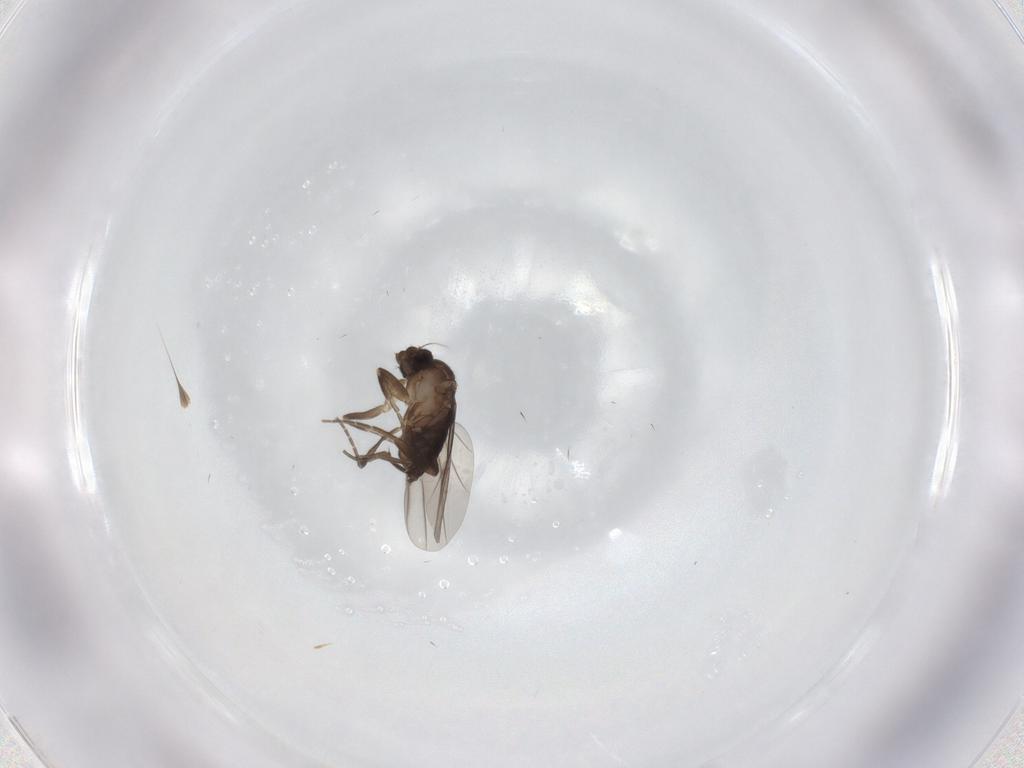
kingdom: Animalia
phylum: Arthropoda
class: Insecta
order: Diptera
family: Phoridae
